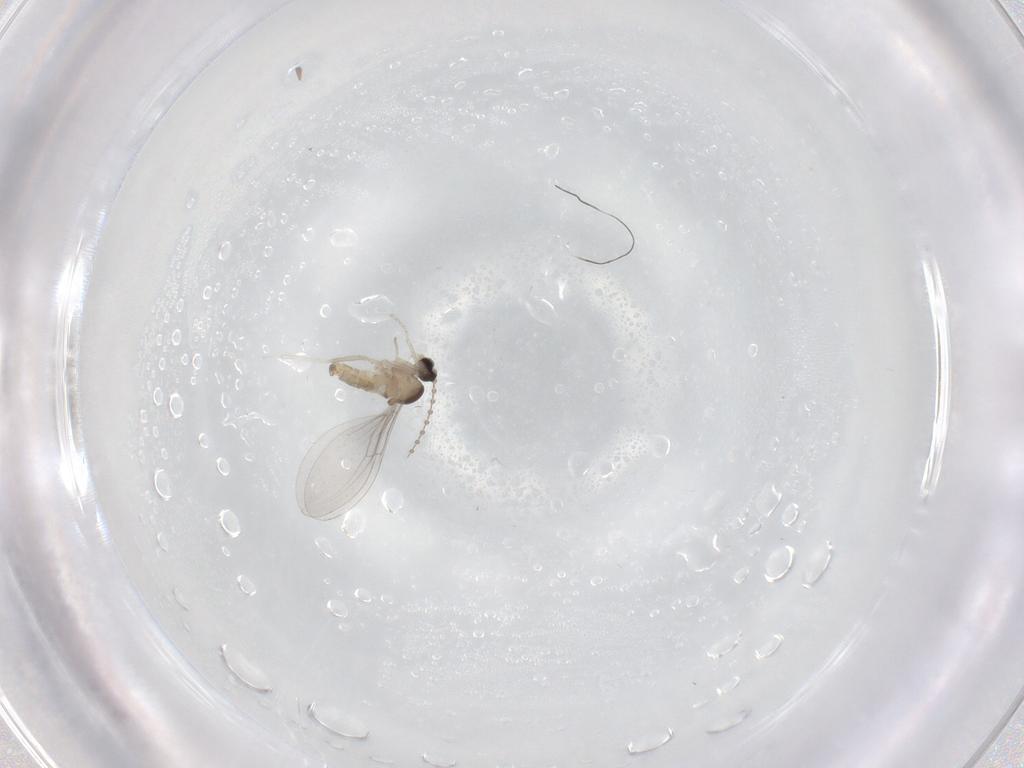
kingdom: Animalia
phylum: Arthropoda
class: Insecta
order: Diptera
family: Cecidomyiidae
